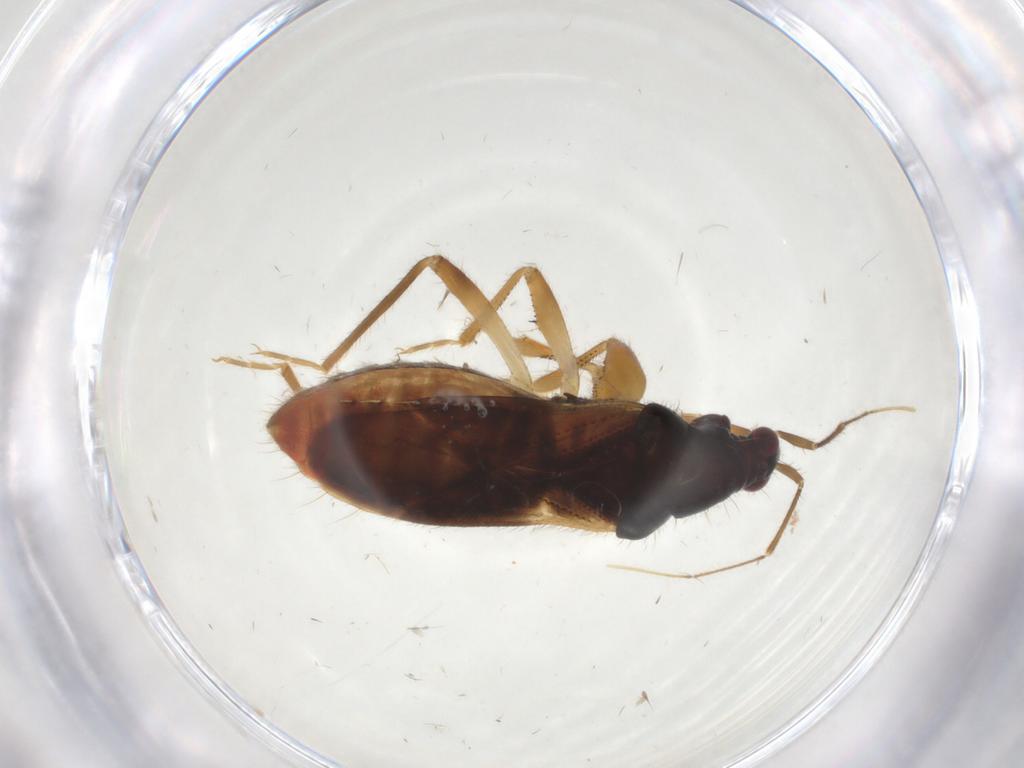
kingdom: Animalia
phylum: Arthropoda
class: Insecta
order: Hemiptera
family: Nabidae
